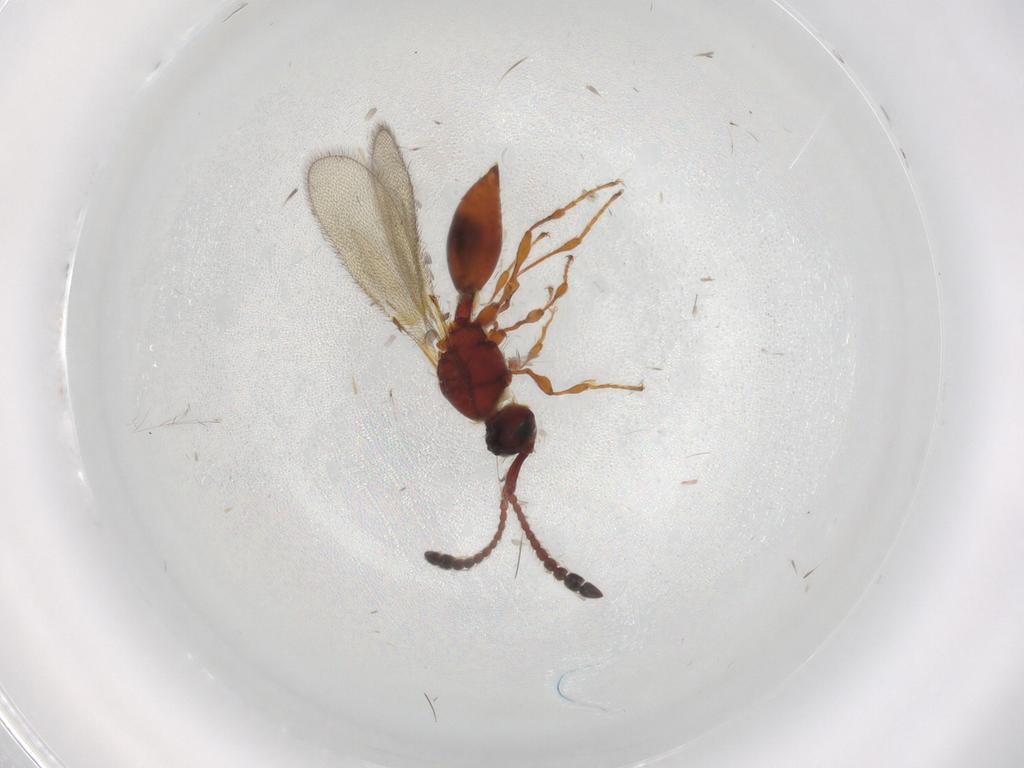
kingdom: Animalia
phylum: Arthropoda
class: Insecta
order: Hymenoptera
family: Diapriidae
